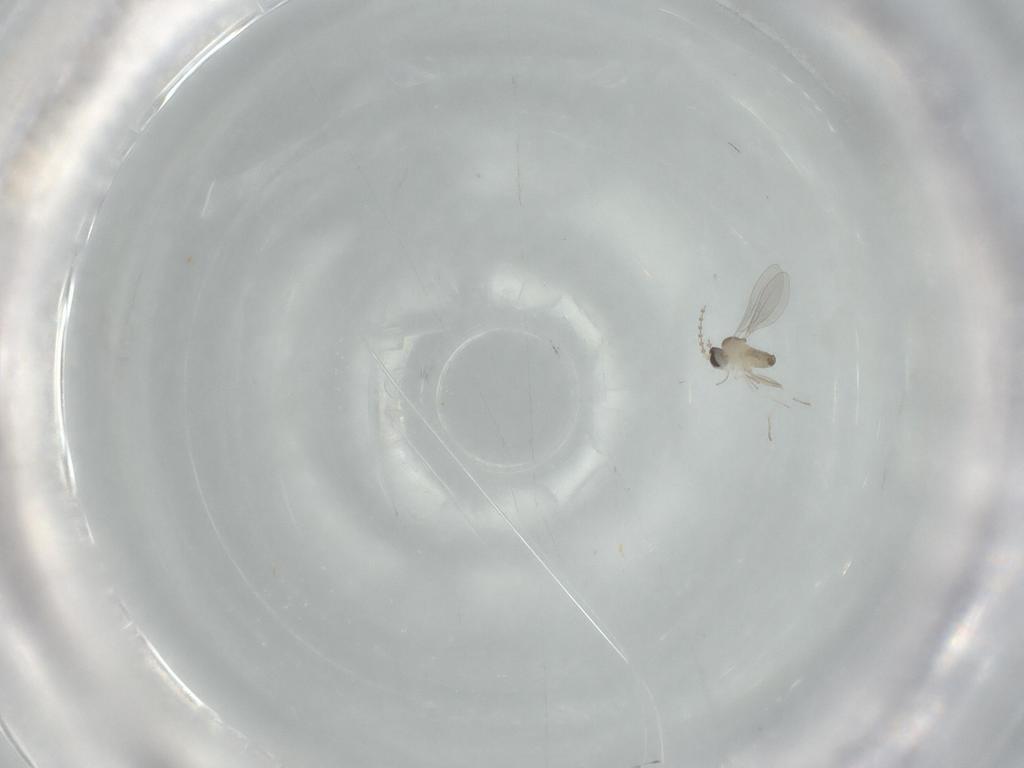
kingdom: Animalia
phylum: Arthropoda
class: Insecta
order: Diptera
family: Cecidomyiidae
